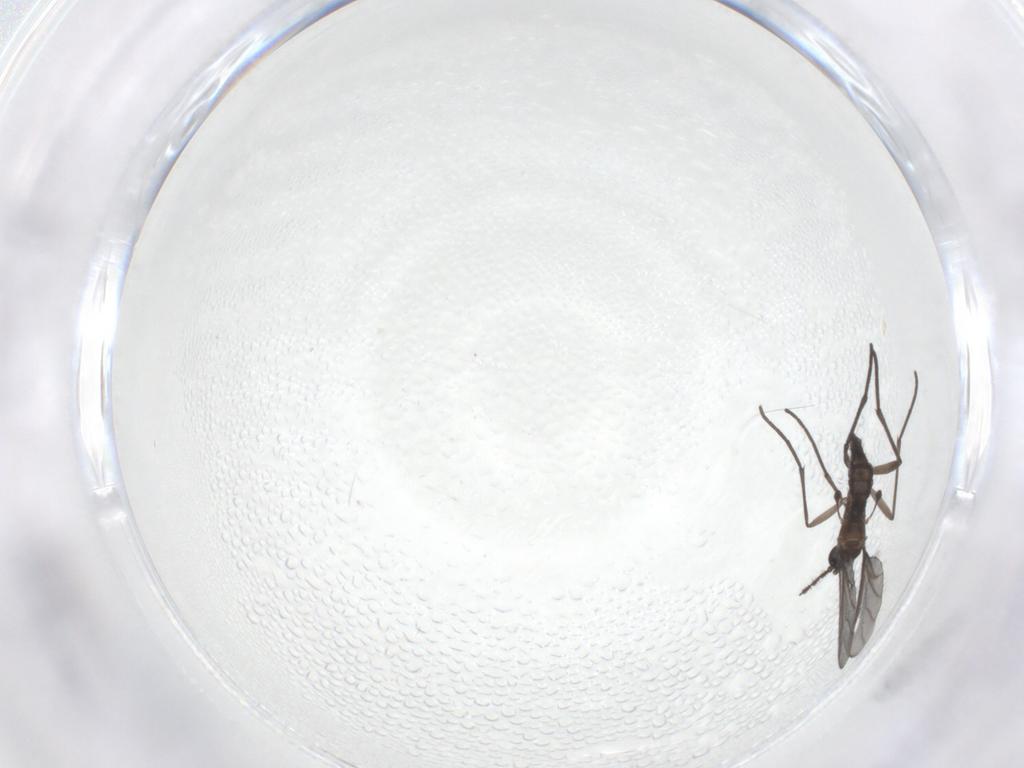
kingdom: Animalia
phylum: Arthropoda
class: Insecta
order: Diptera
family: Sciaridae
